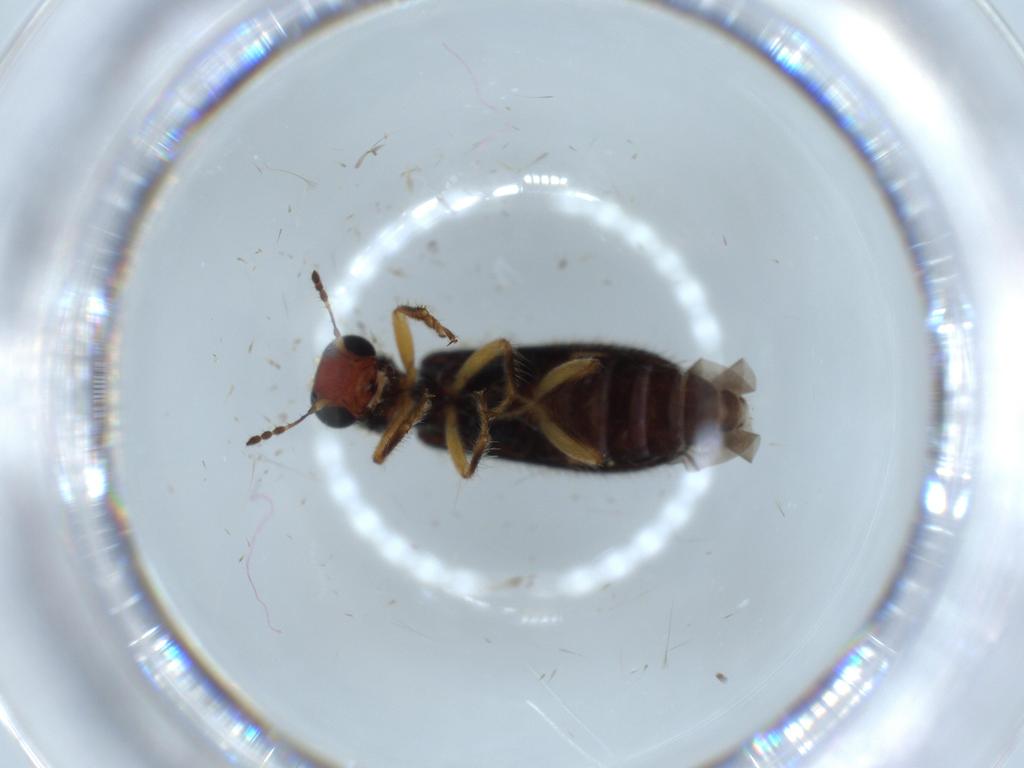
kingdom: Animalia
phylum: Arthropoda
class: Insecta
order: Coleoptera
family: Cleridae
